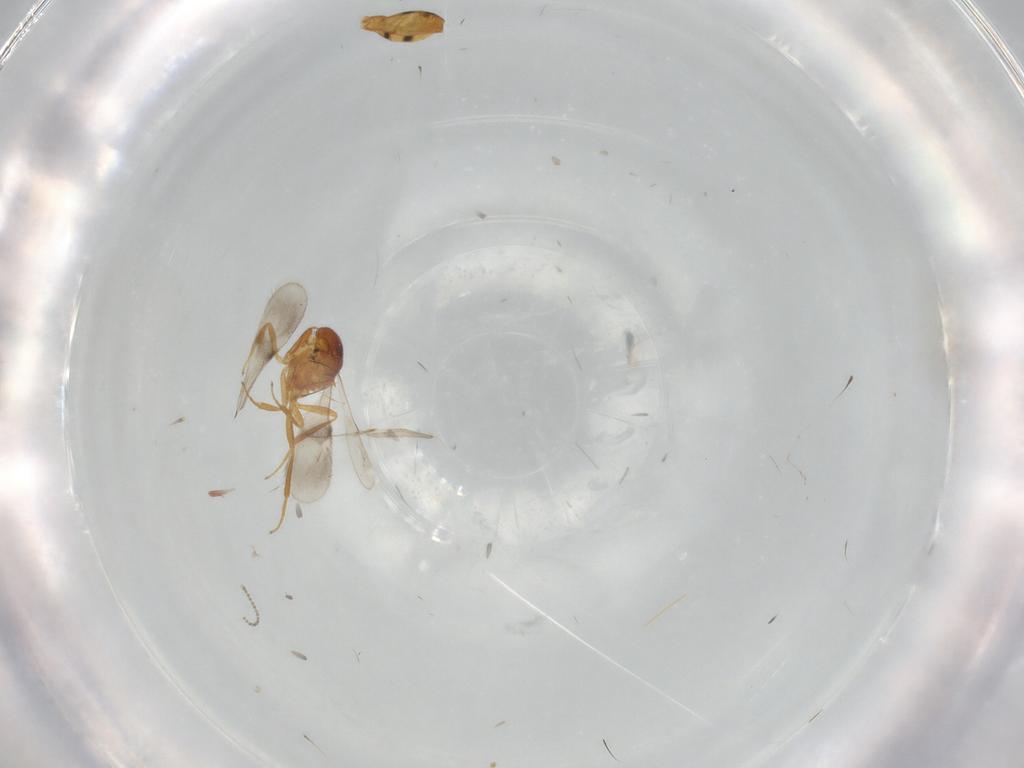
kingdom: Animalia
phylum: Arthropoda
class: Insecta
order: Hymenoptera
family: Scelionidae
